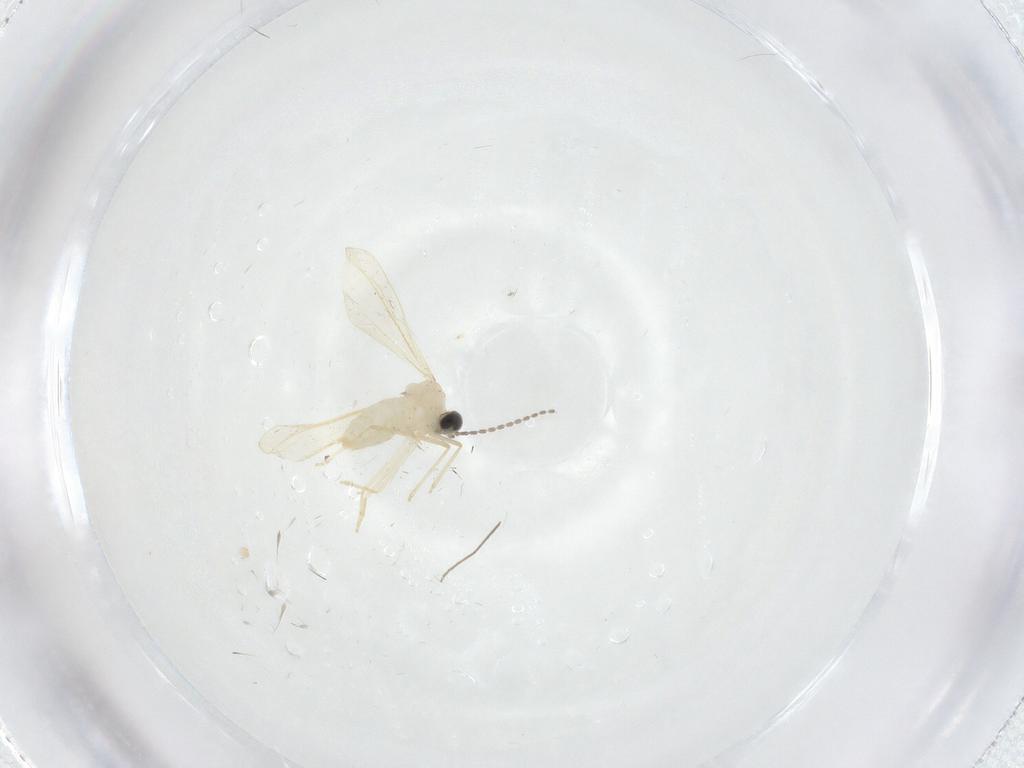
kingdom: Animalia
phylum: Arthropoda
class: Insecta
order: Diptera
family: Cecidomyiidae
